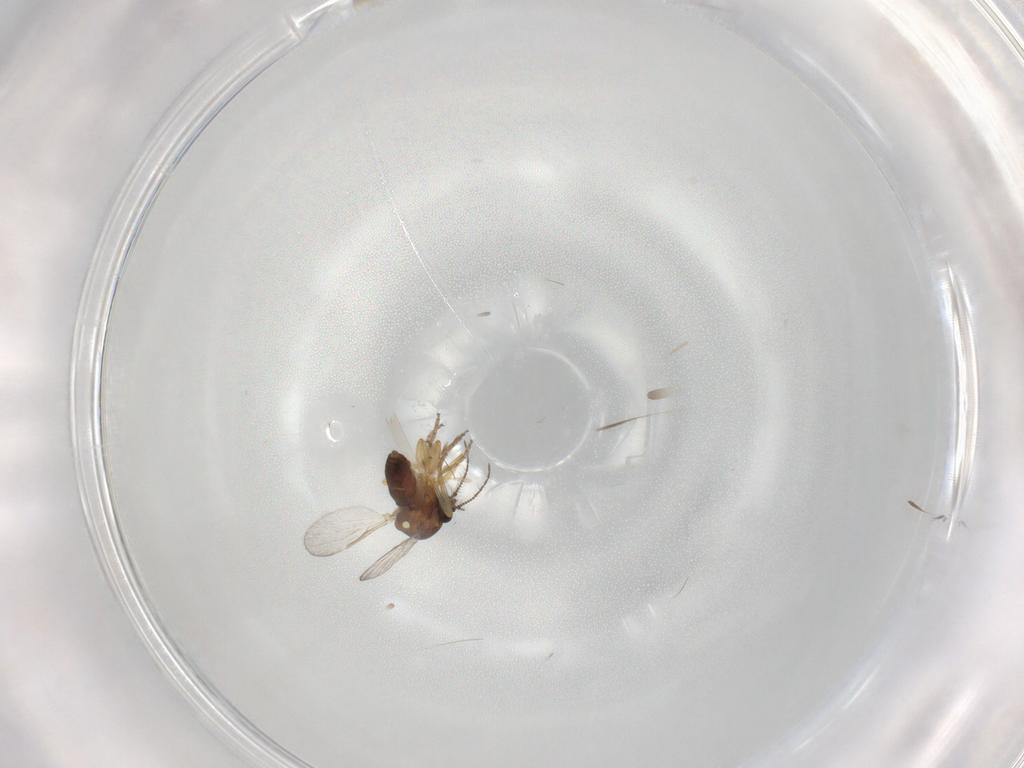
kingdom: Animalia
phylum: Arthropoda
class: Insecta
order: Diptera
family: Ceratopogonidae
